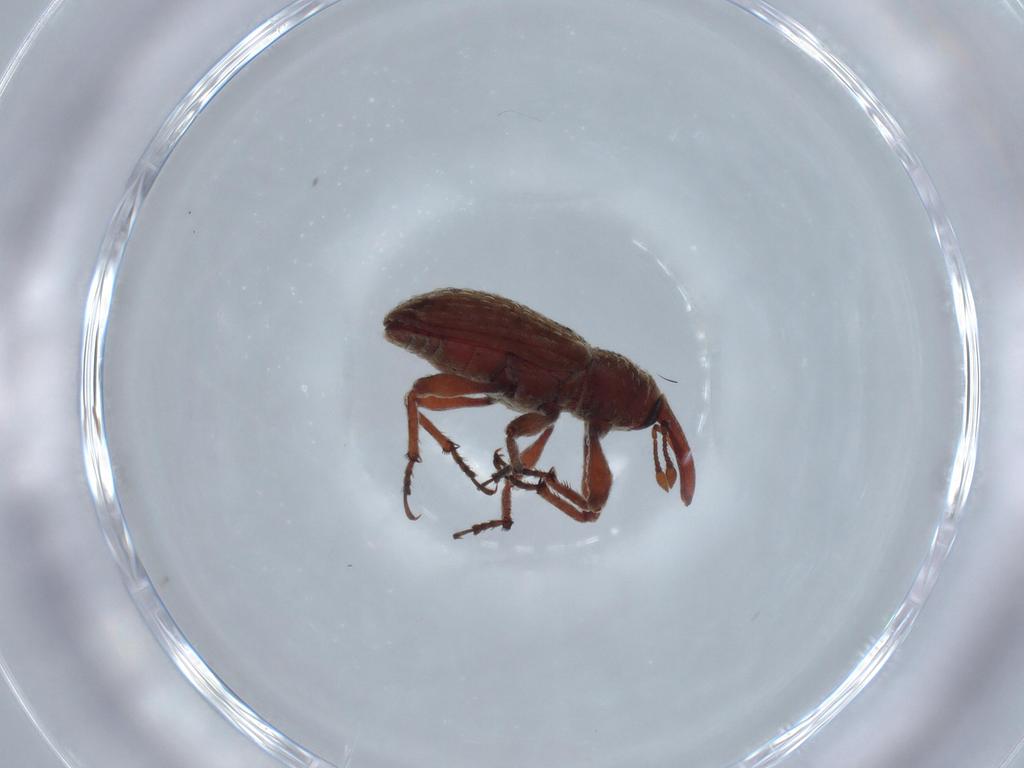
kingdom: Animalia
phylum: Arthropoda
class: Insecta
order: Coleoptera
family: Curculionidae
